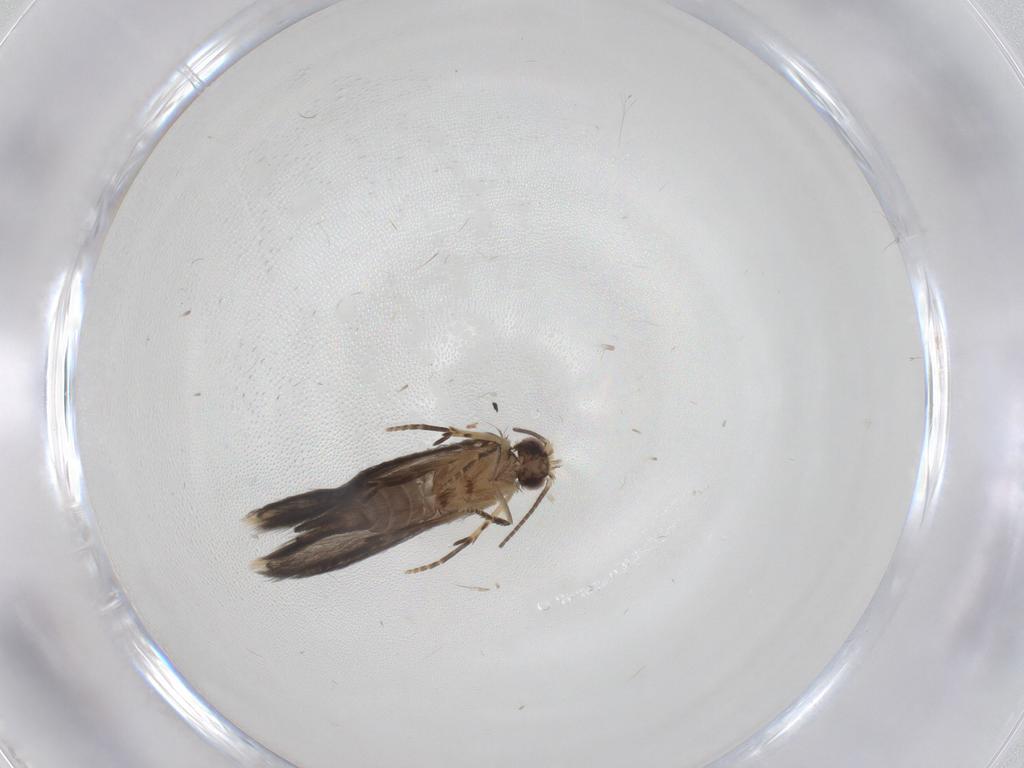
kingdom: Animalia
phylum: Arthropoda
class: Insecta
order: Trichoptera
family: Hydroptilidae
